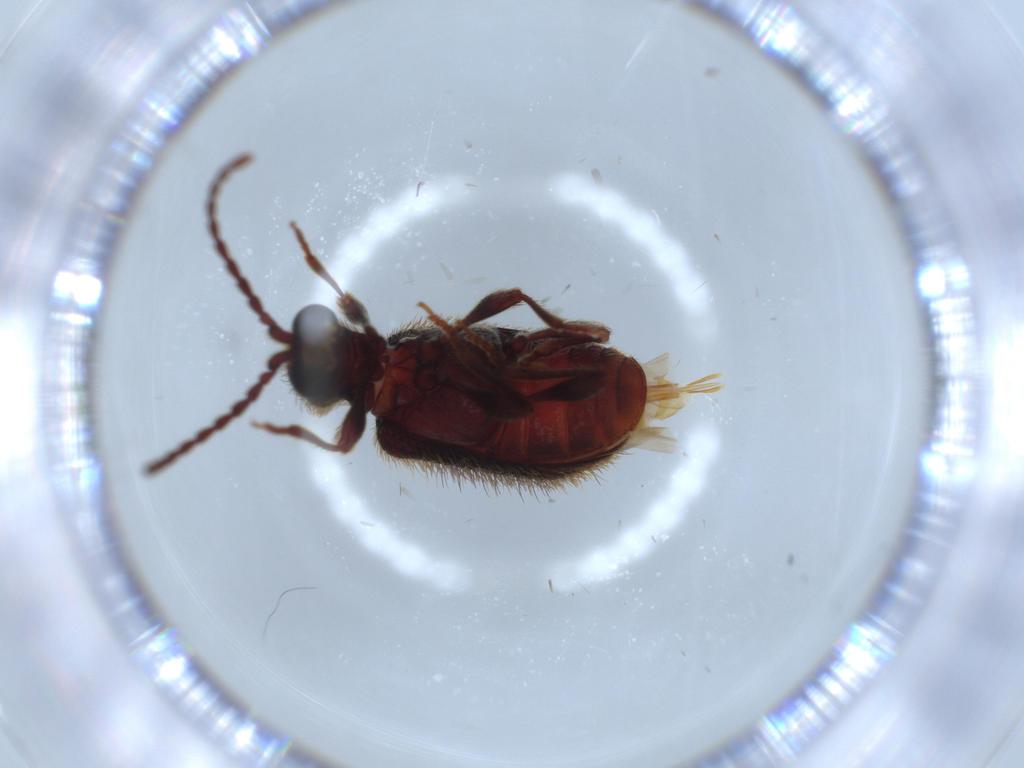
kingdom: Animalia
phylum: Arthropoda
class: Insecta
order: Coleoptera
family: Ptinidae
